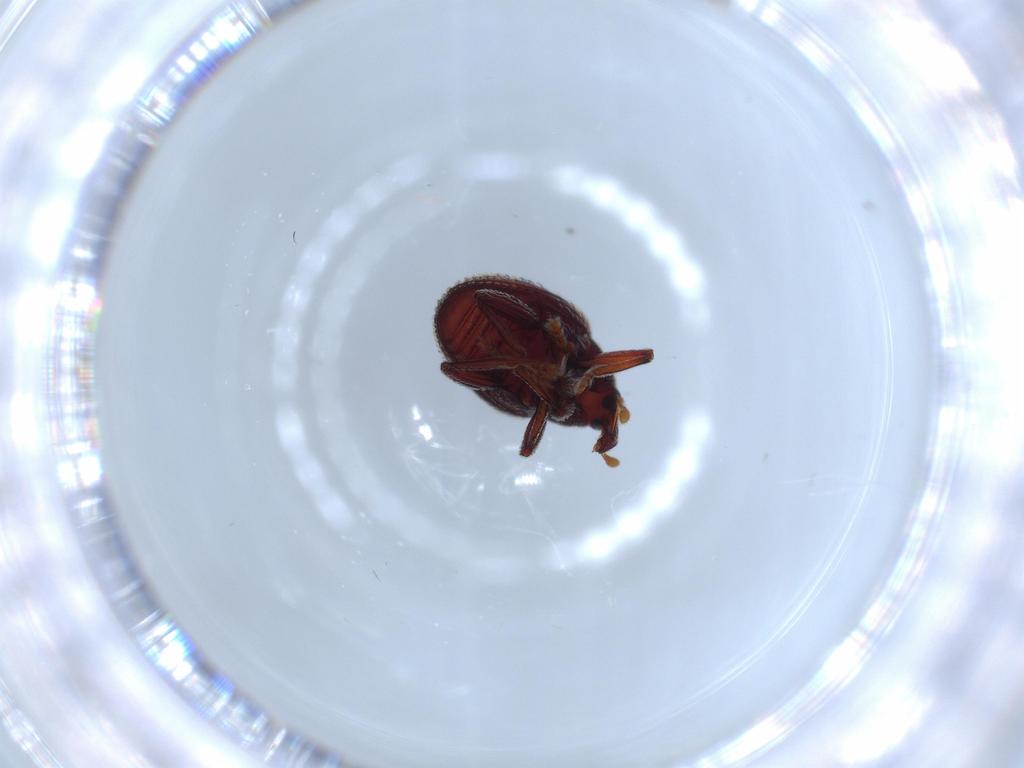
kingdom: Animalia
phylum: Arthropoda
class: Insecta
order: Coleoptera
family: Curculionidae
